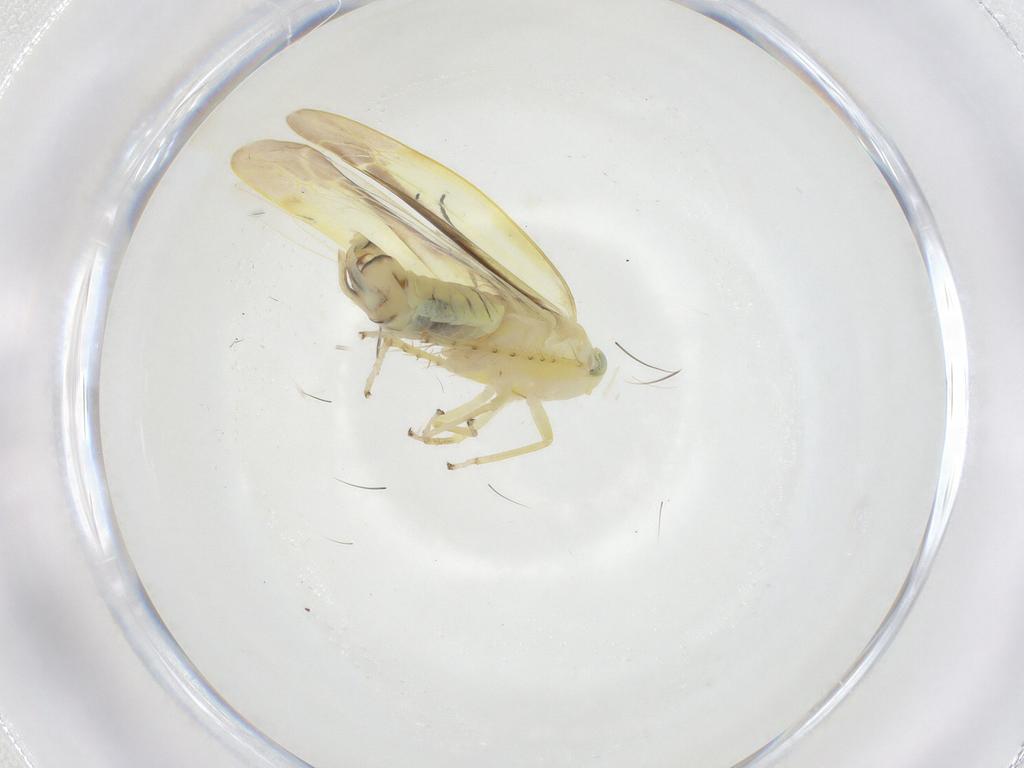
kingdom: Animalia
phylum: Arthropoda
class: Insecta
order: Hemiptera
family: Cicadellidae
